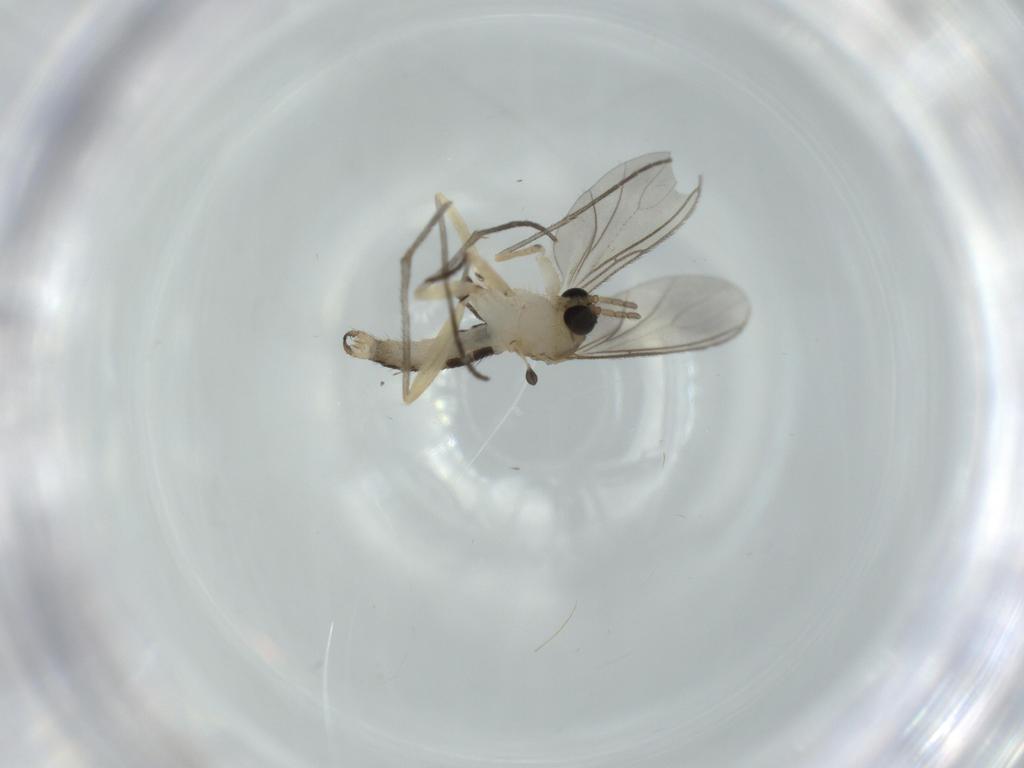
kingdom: Animalia
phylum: Arthropoda
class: Insecta
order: Diptera
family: Sciaridae
